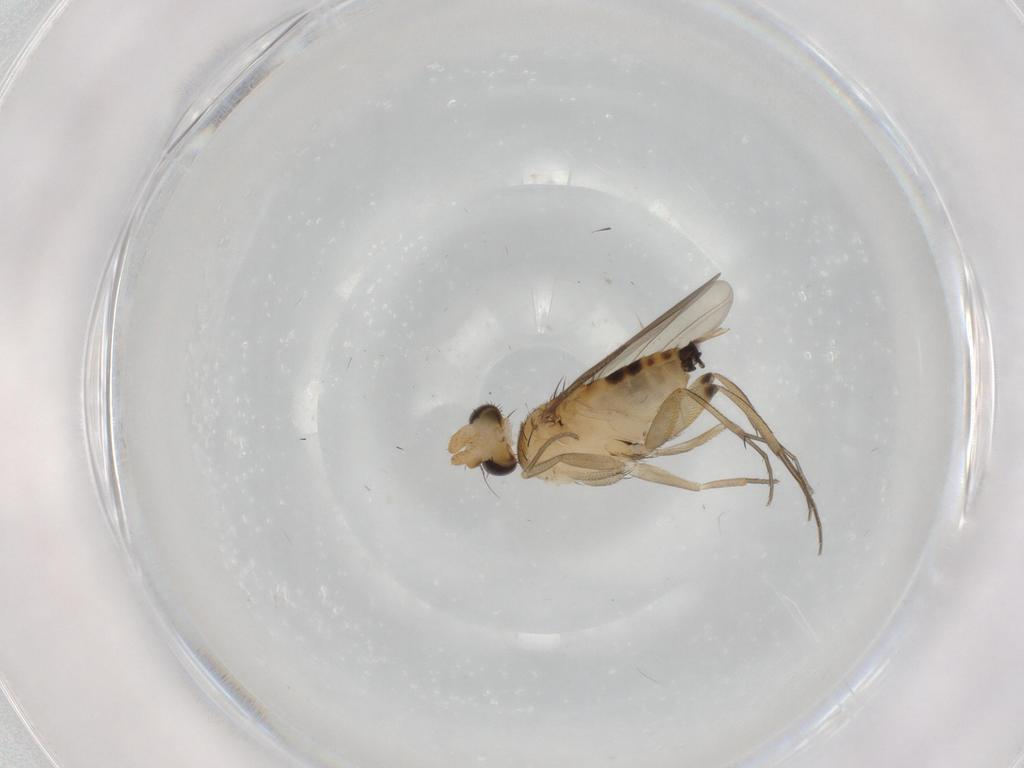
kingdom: Animalia
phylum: Arthropoda
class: Insecta
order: Diptera
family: Phoridae
